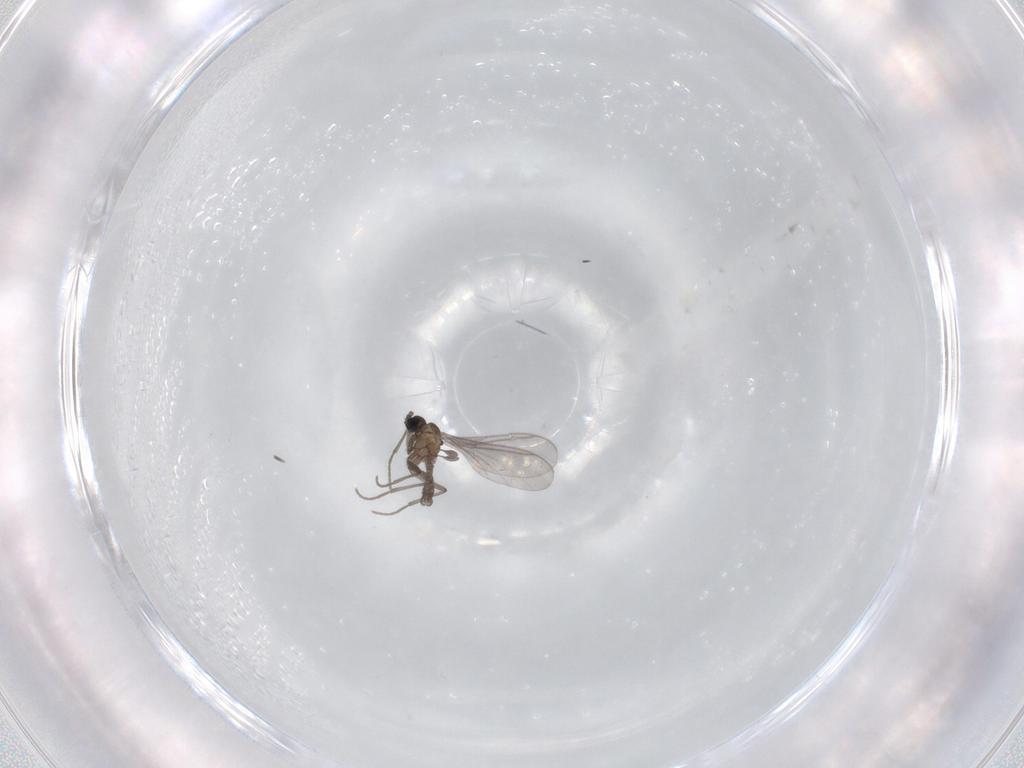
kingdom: Animalia
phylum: Arthropoda
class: Insecta
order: Diptera
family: Sciaridae
